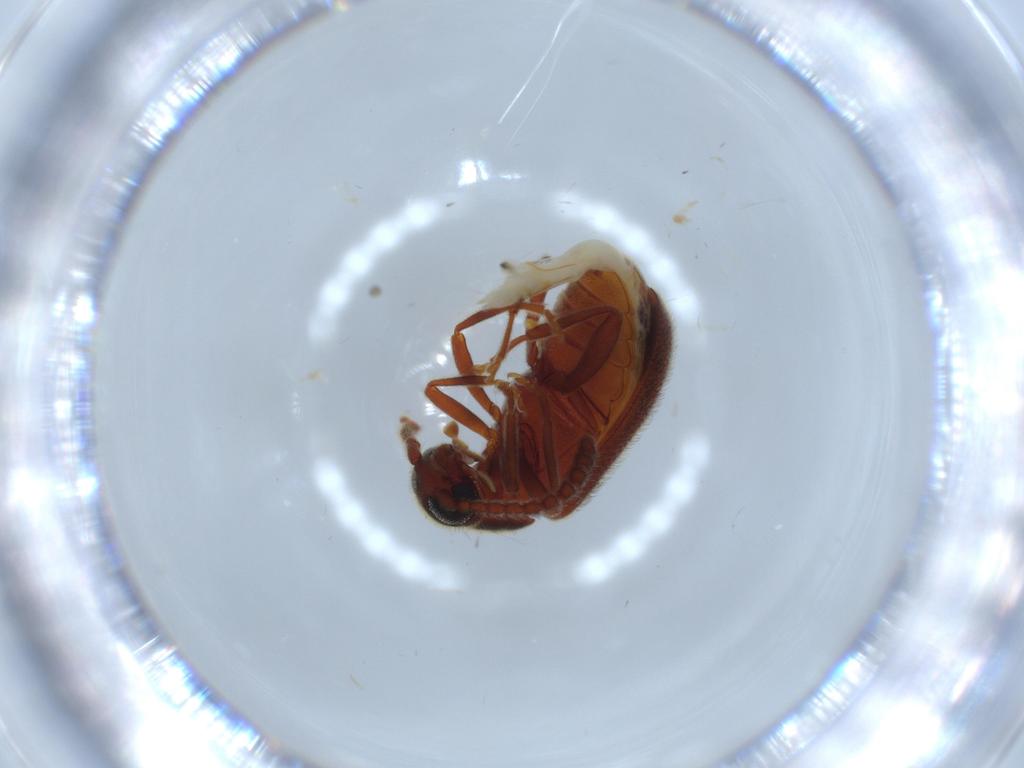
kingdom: Animalia
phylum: Arthropoda
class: Insecta
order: Coleoptera
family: Aderidae
